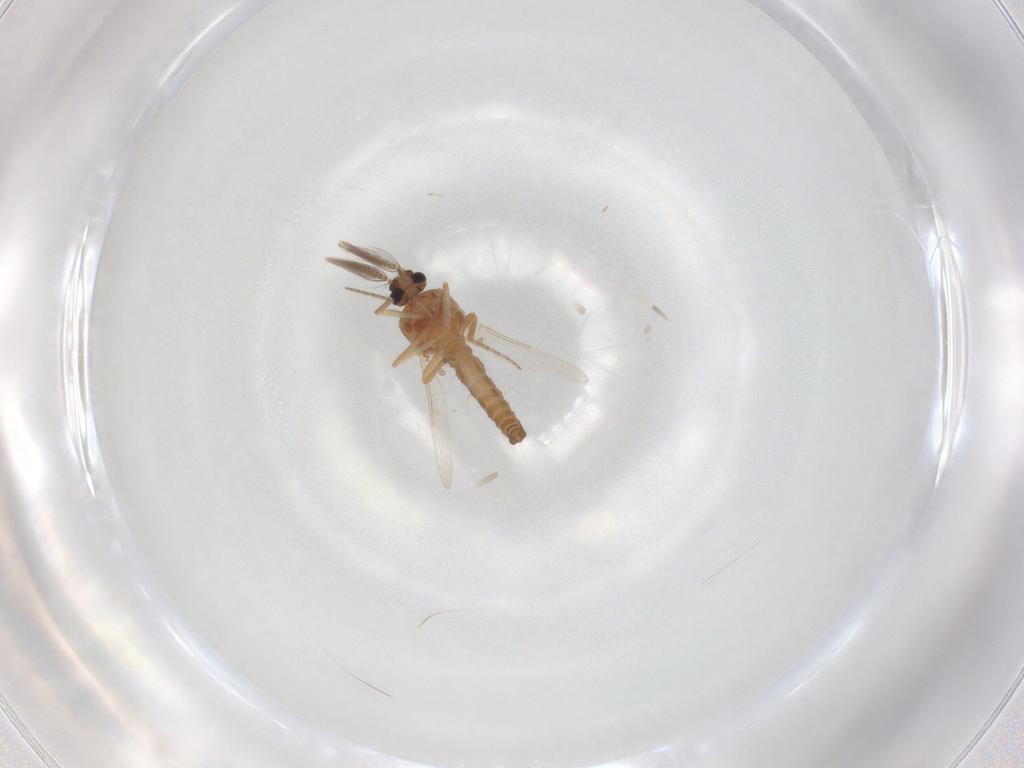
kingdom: Animalia
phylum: Arthropoda
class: Insecta
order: Diptera
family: Ceratopogonidae
